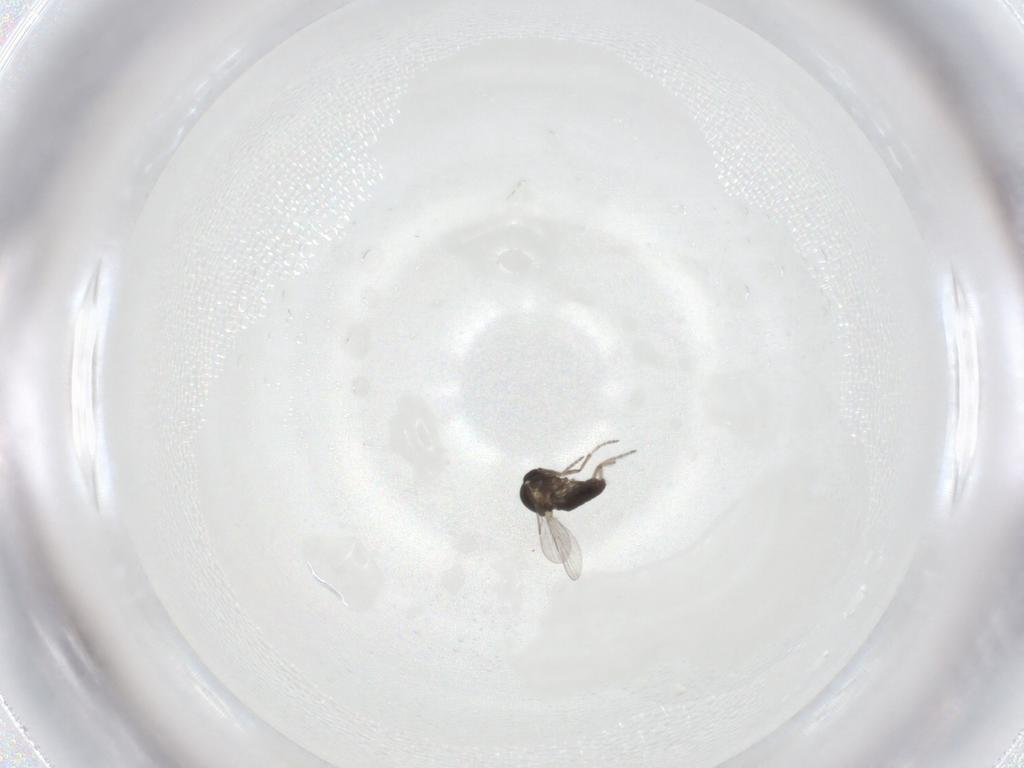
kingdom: Animalia
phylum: Arthropoda
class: Insecta
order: Diptera
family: Ceratopogonidae
